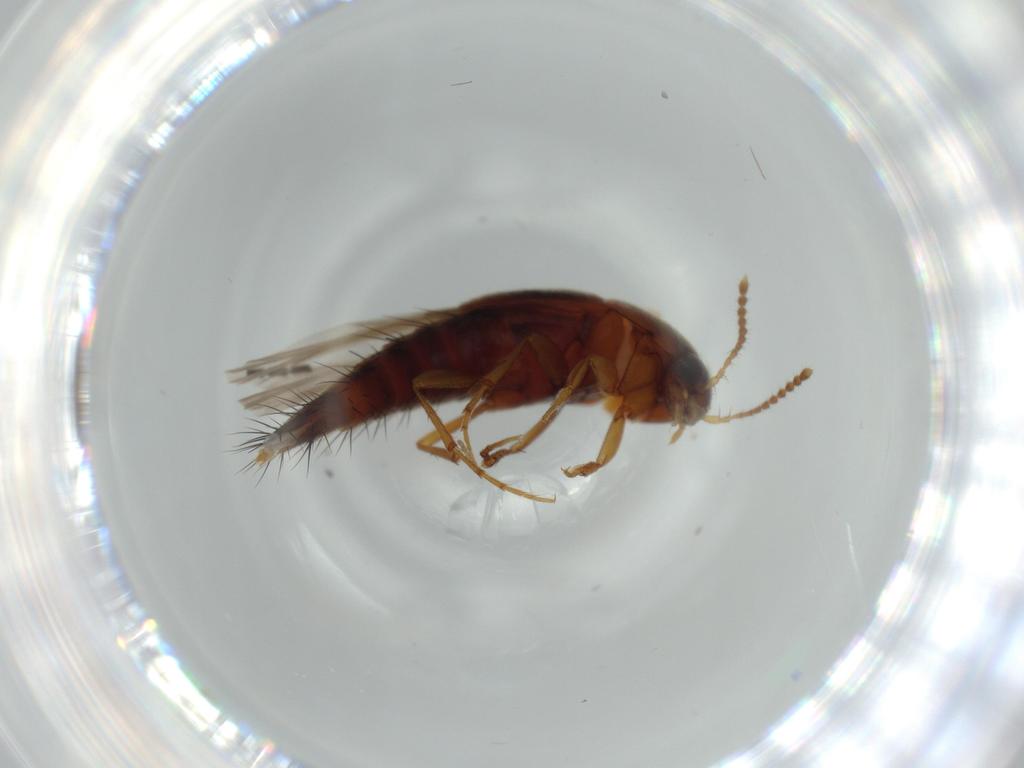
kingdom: Animalia
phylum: Arthropoda
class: Insecta
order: Coleoptera
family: Staphylinidae
